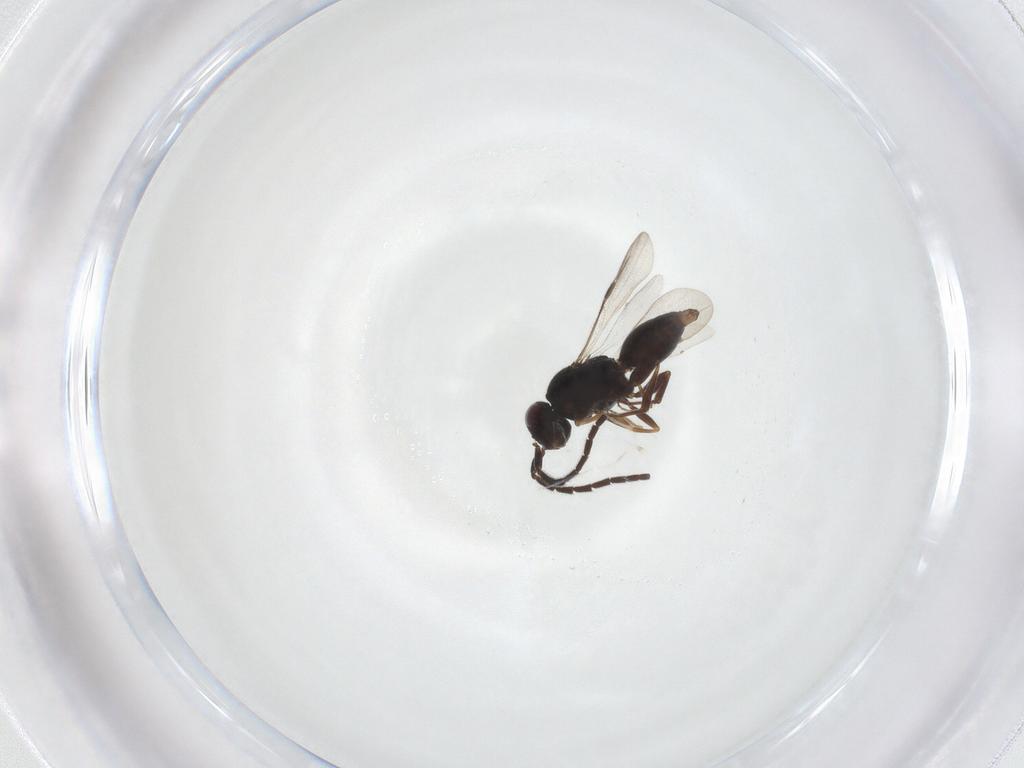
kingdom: Animalia
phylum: Arthropoda
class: Insecta
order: Hymenoptera
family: Megaspilidae
